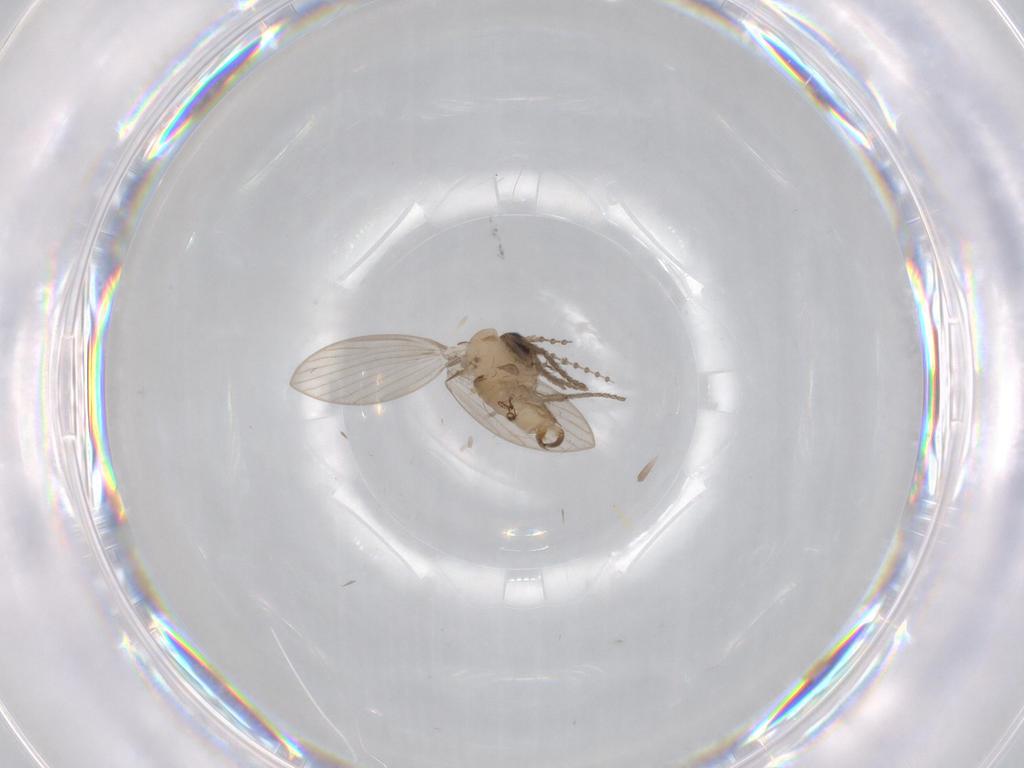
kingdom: Animalia
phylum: Arthropoda
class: Insecta
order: Diptera
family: Psychodidae
